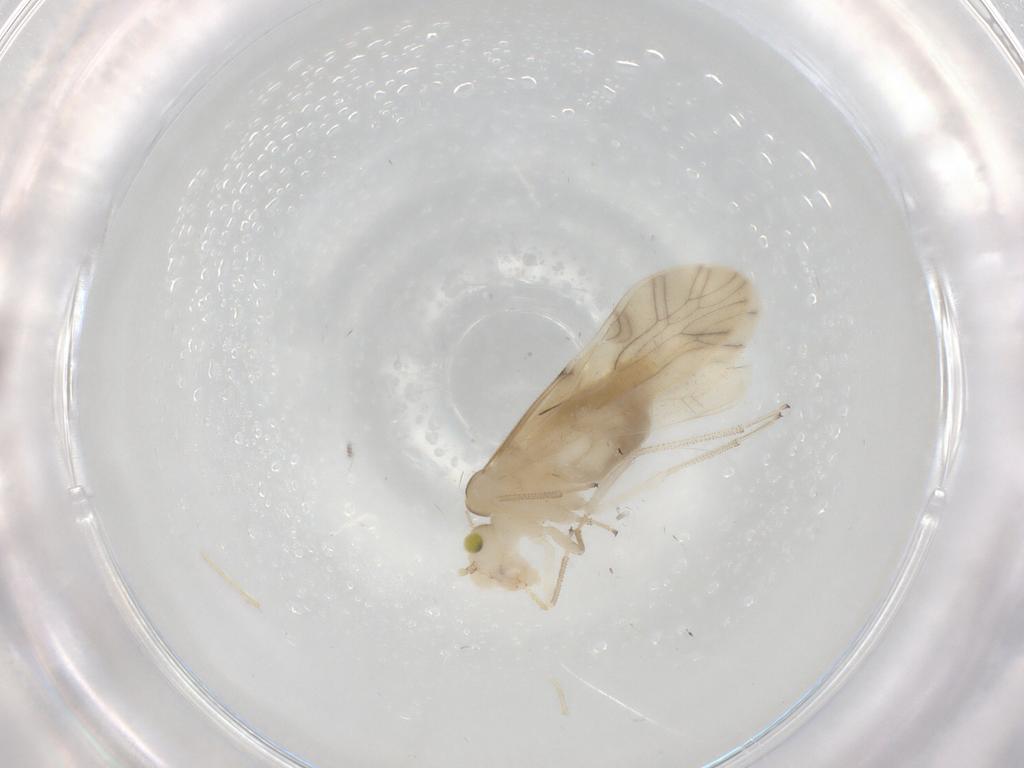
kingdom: Animalia
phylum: Arthropoda
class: Insecta
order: Psocodea
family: Caeciliusidae
